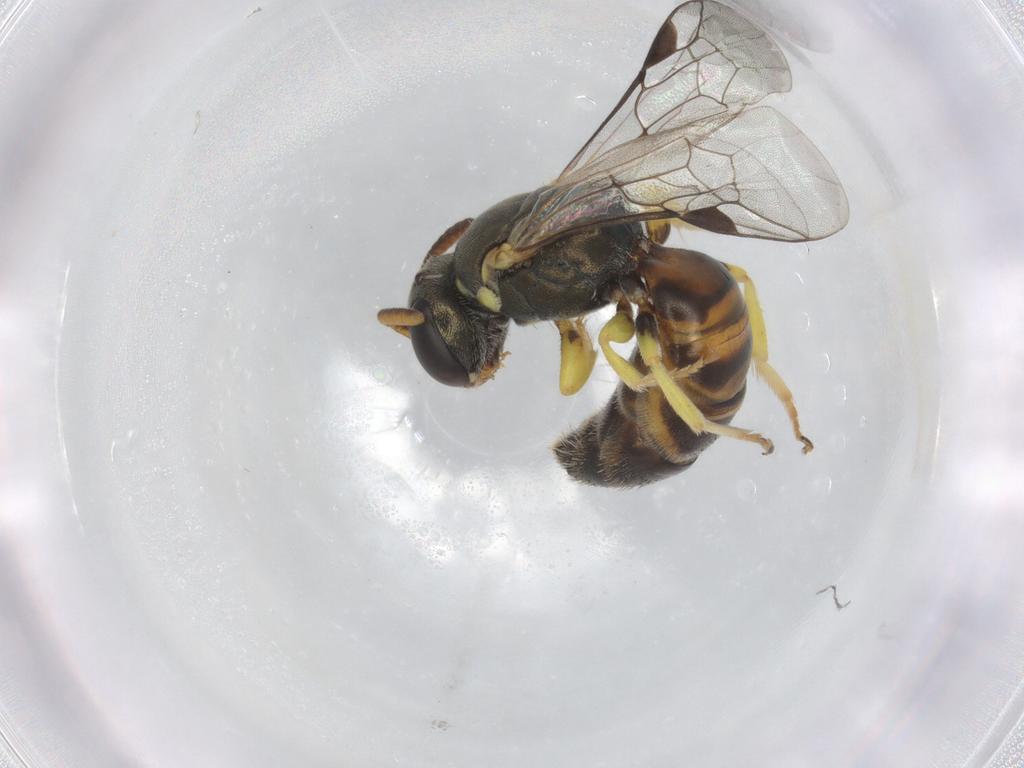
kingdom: Animalia
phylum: Arthropoda
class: Insecta
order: Hymenoptera
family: Colletidae
